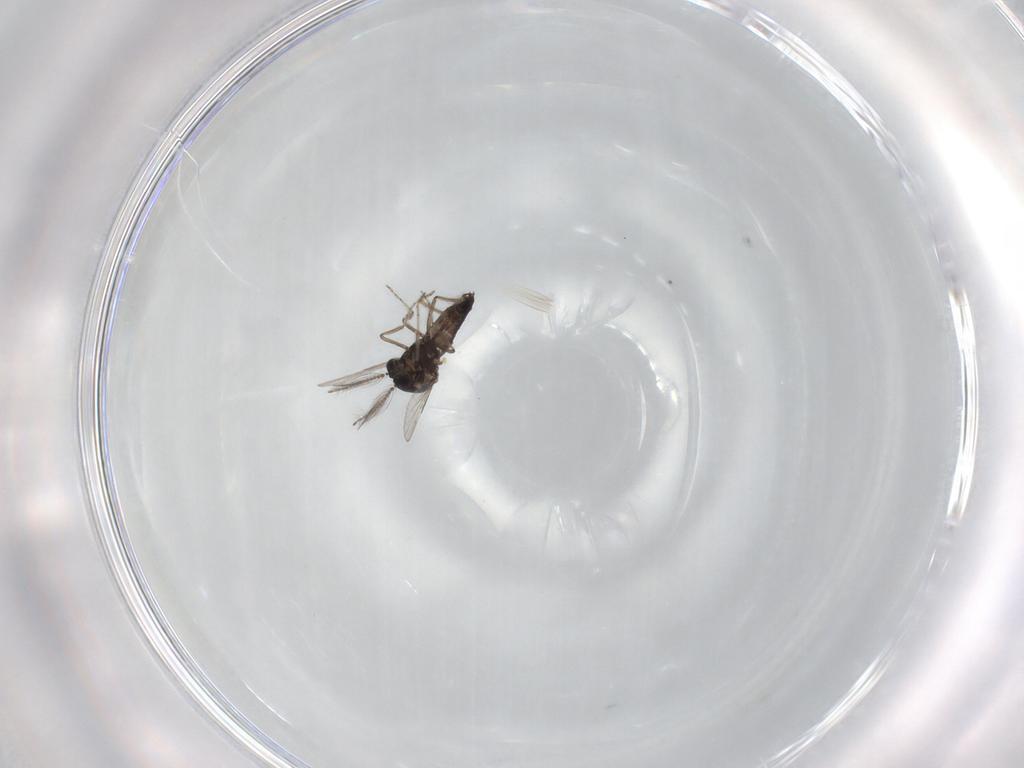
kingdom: Animalia
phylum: Arthropoda
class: Insecta
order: Diptera
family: Ceratopogonidae
